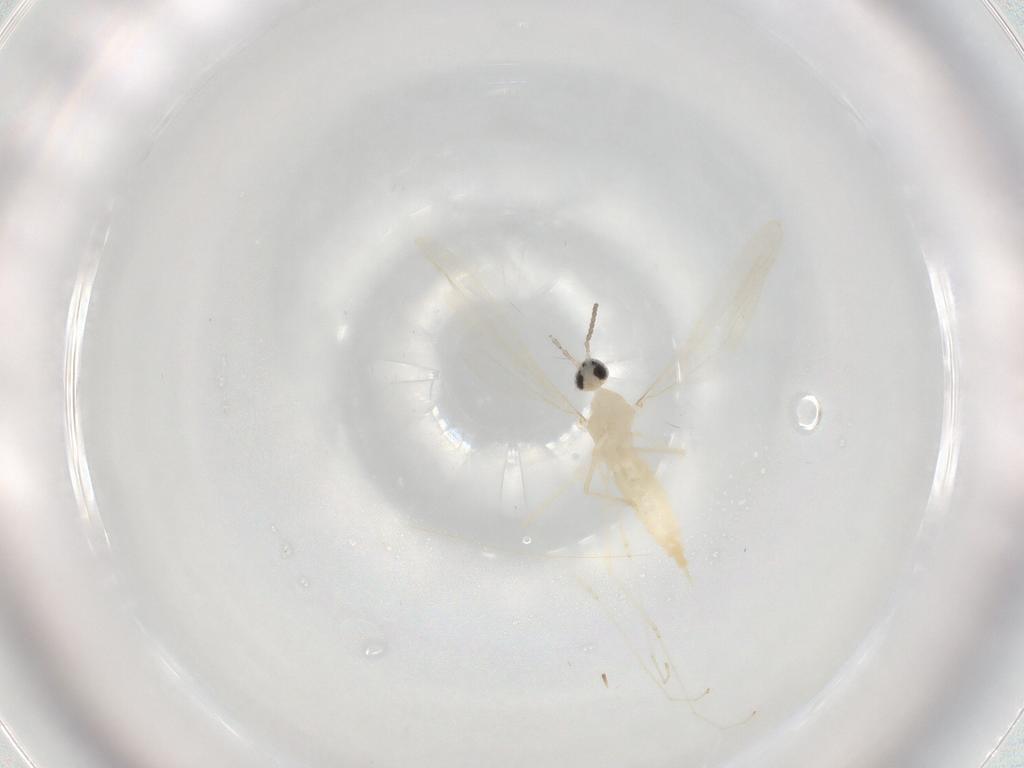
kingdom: Animalia
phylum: Arthropoda
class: Insecta
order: Diptera
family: Cecidomyiidae
